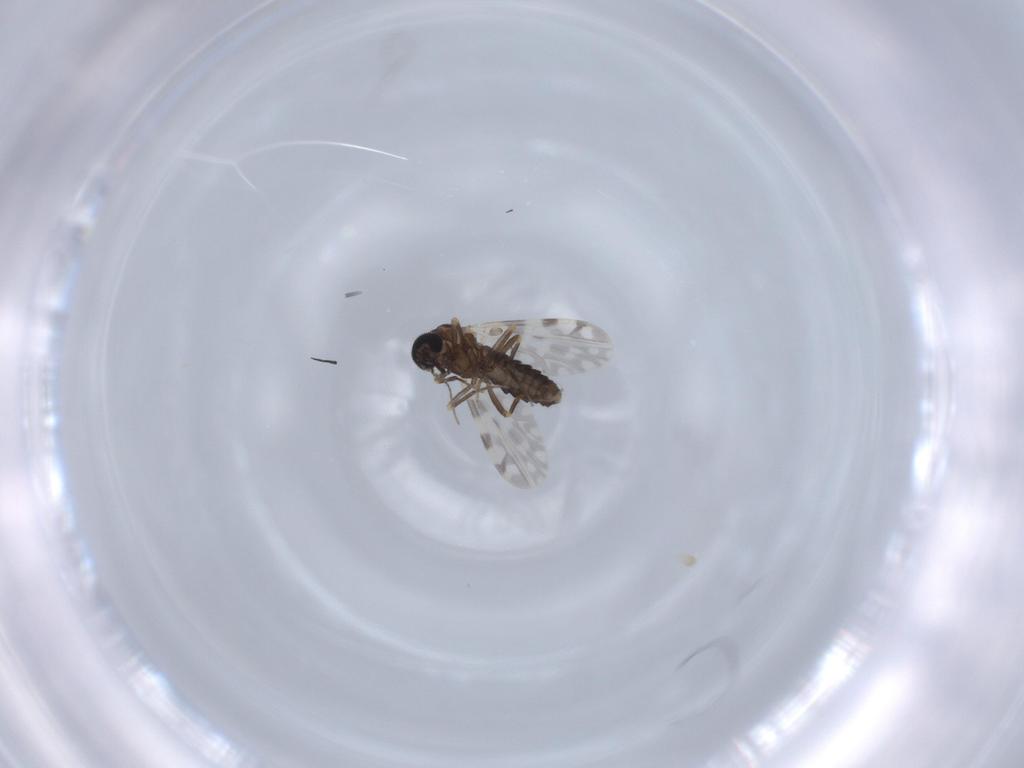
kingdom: Animalia
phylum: Arthropoda
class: Insecta
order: Diptera
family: Ceratopogonidae
